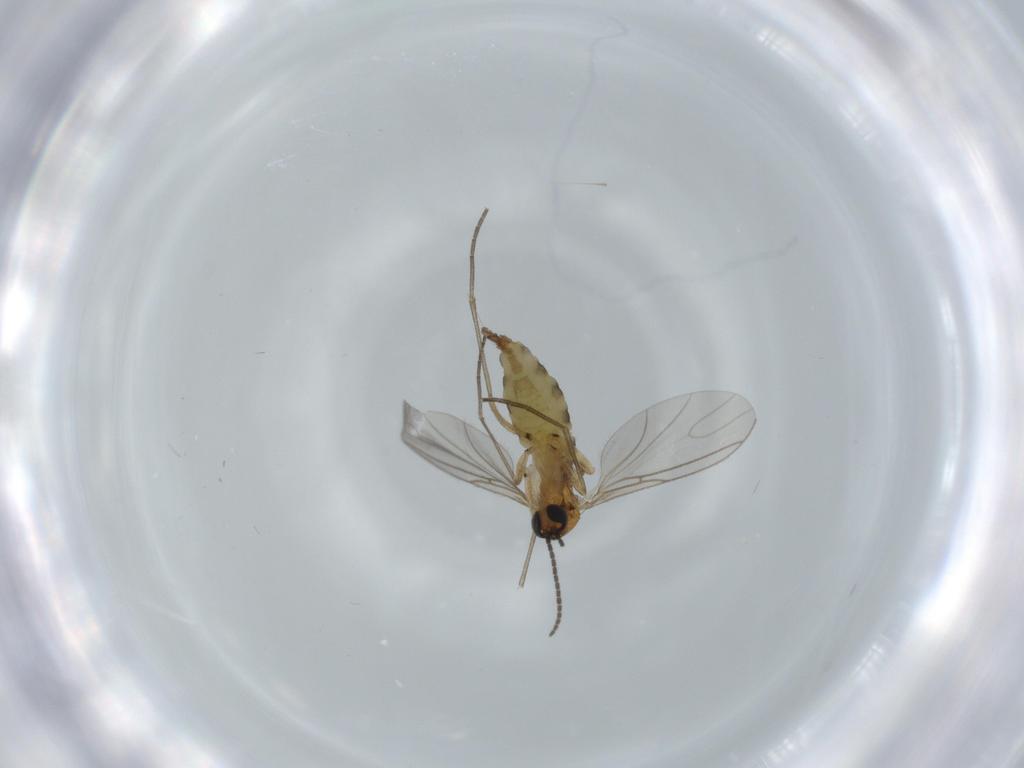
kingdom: Animalia
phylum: Arthropoda
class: Insecta
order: Diptera
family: Sciaridae
